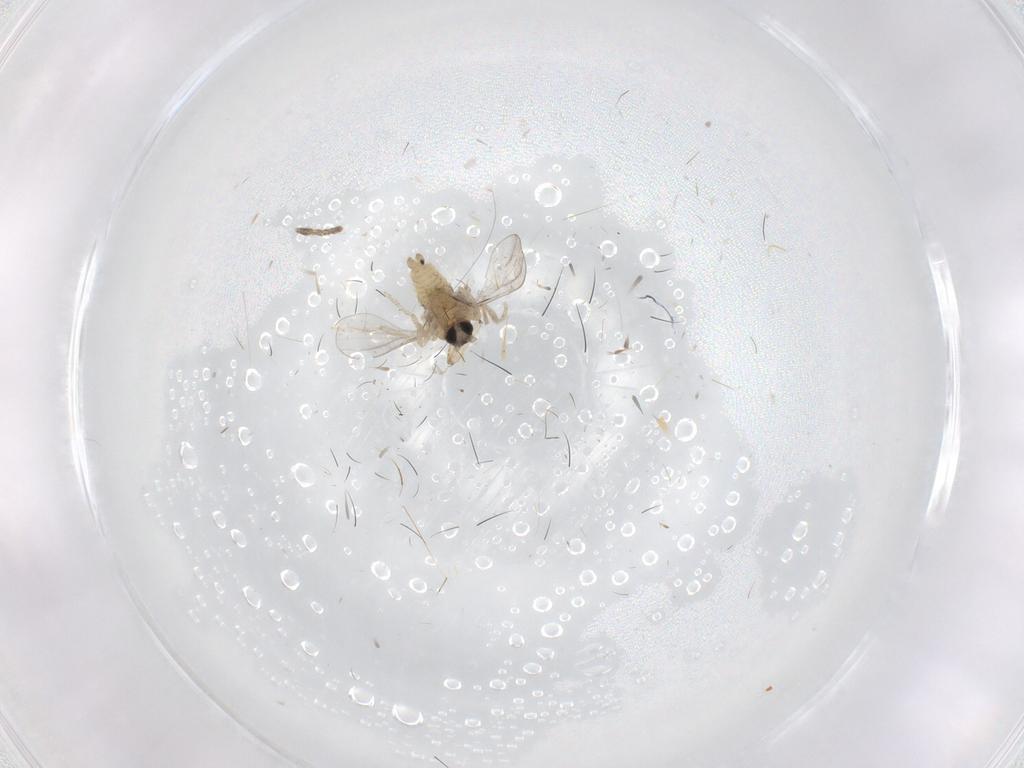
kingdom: Animalia
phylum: Arthropoda
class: Insecta
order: Diptera
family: Psychodidae
